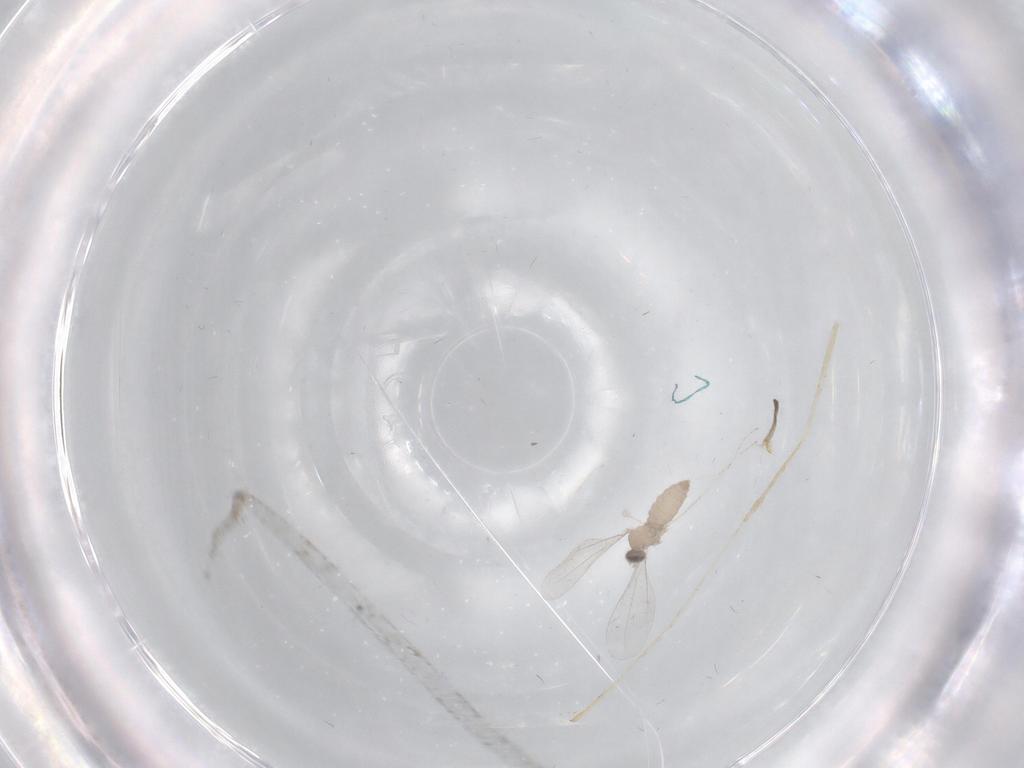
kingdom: Animalia
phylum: Arthropoda
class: Insecta
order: Diptera
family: Cecidomyiidae
